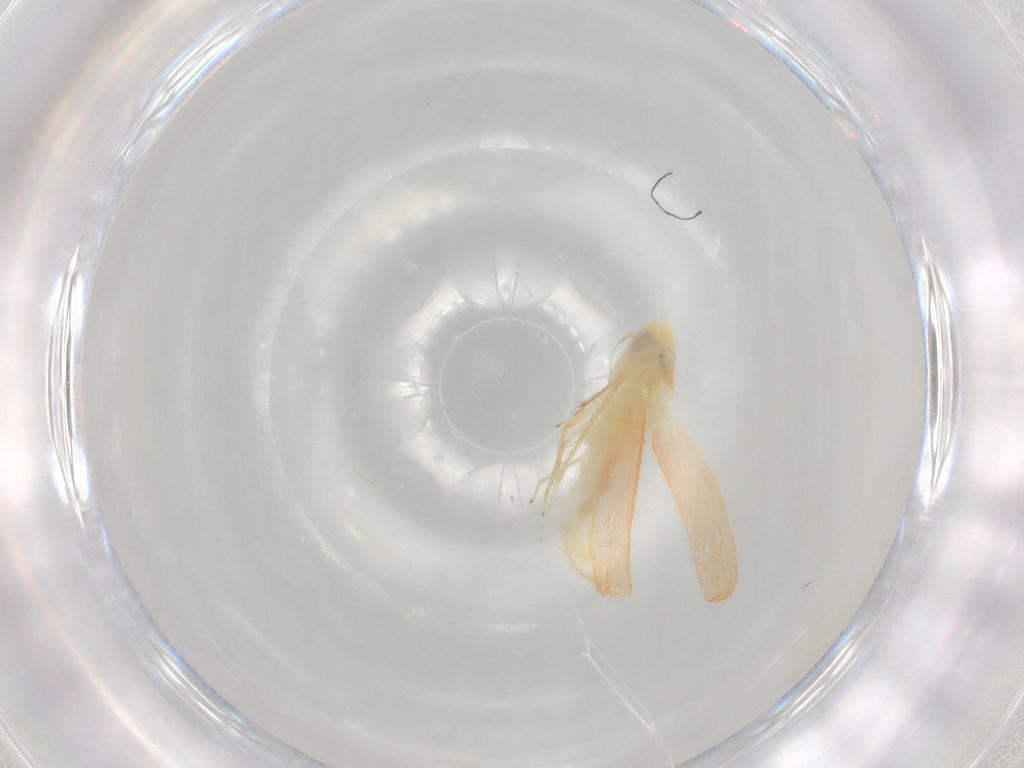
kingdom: Animalia
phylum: Arthropoda
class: Insecta
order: Hemiptera
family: Cicadellidae
